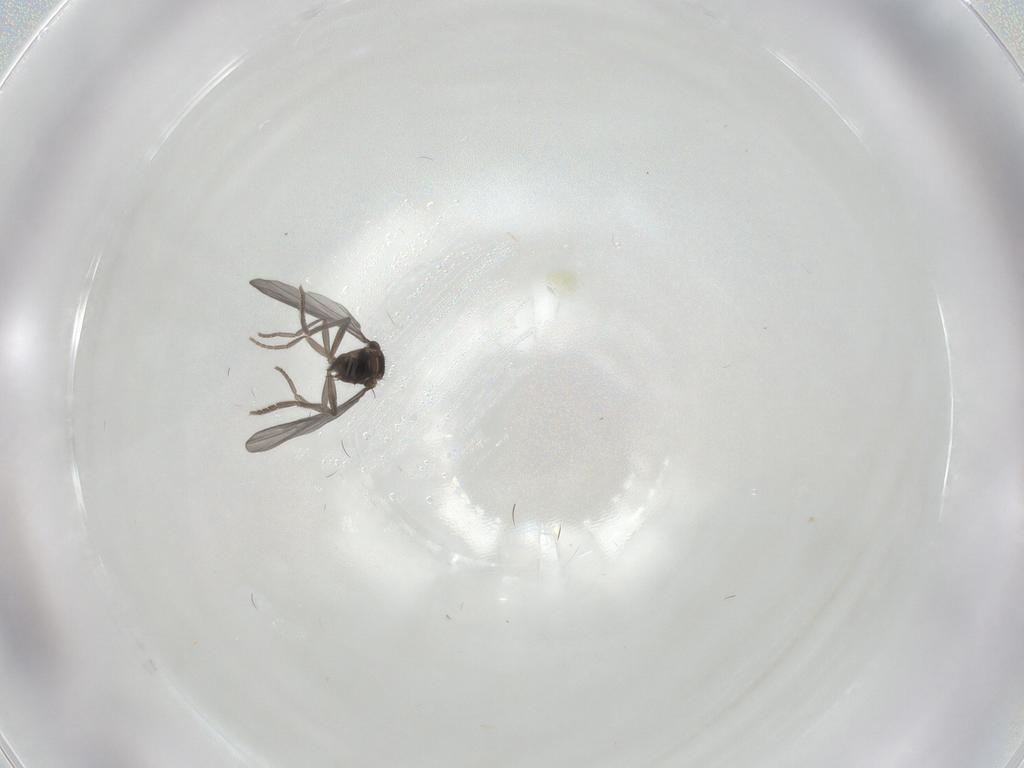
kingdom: Animalia
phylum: Arthropoda
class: Insecta
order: Diptera
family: Phoridae
